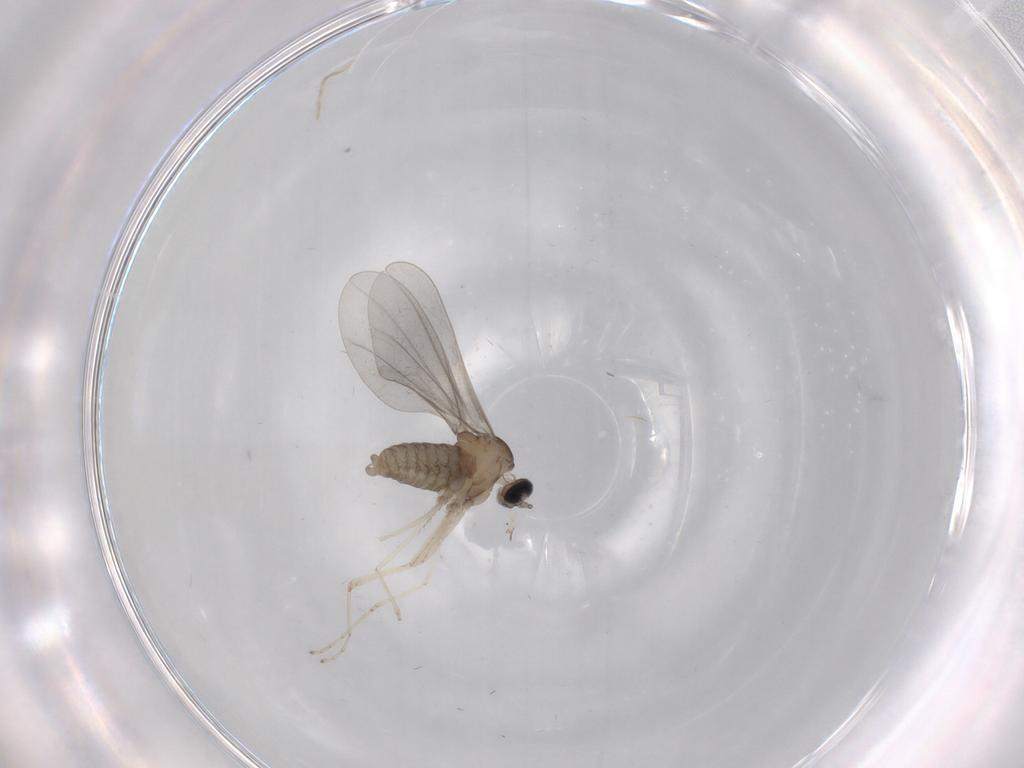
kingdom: Animalia
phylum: Arthropoda
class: Insecta
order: Diptera
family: Cecidomyiidae
